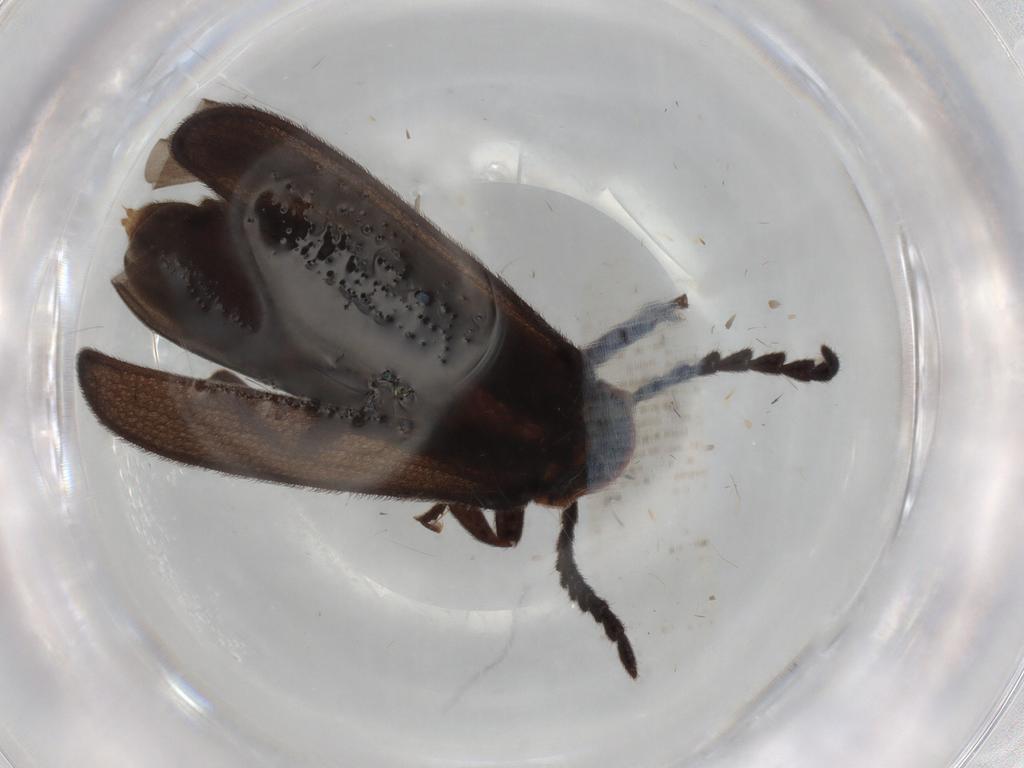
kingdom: Animalia
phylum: Arthropoda
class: Insecta
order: Coleoptera
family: Lycidae
